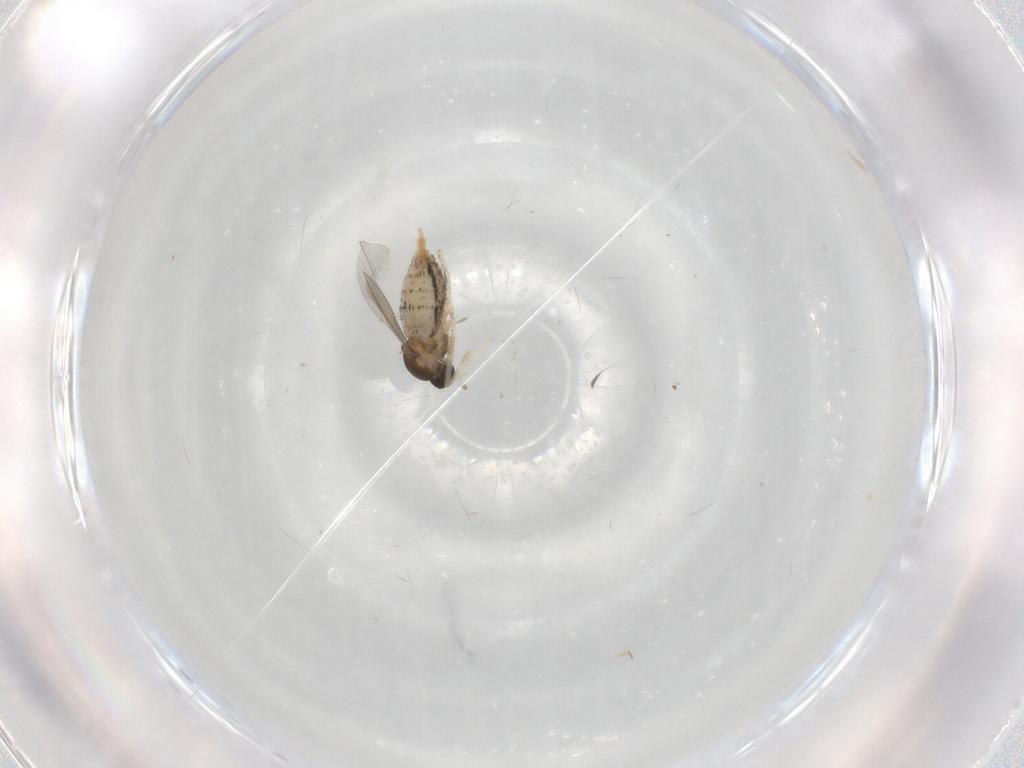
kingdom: Animalia
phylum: Arthropoda
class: Insecta
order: Diptera
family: Cecidomyiidae
